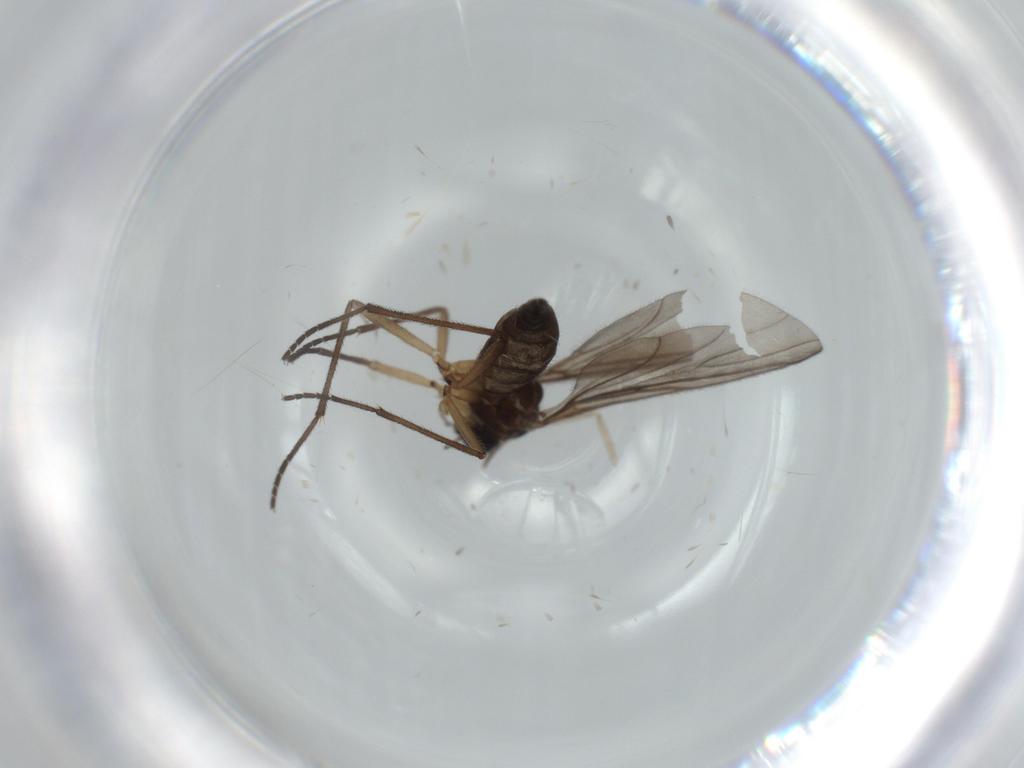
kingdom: Animalia
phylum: Arthropoda
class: Insecta
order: Diptera
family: Psychodidae
